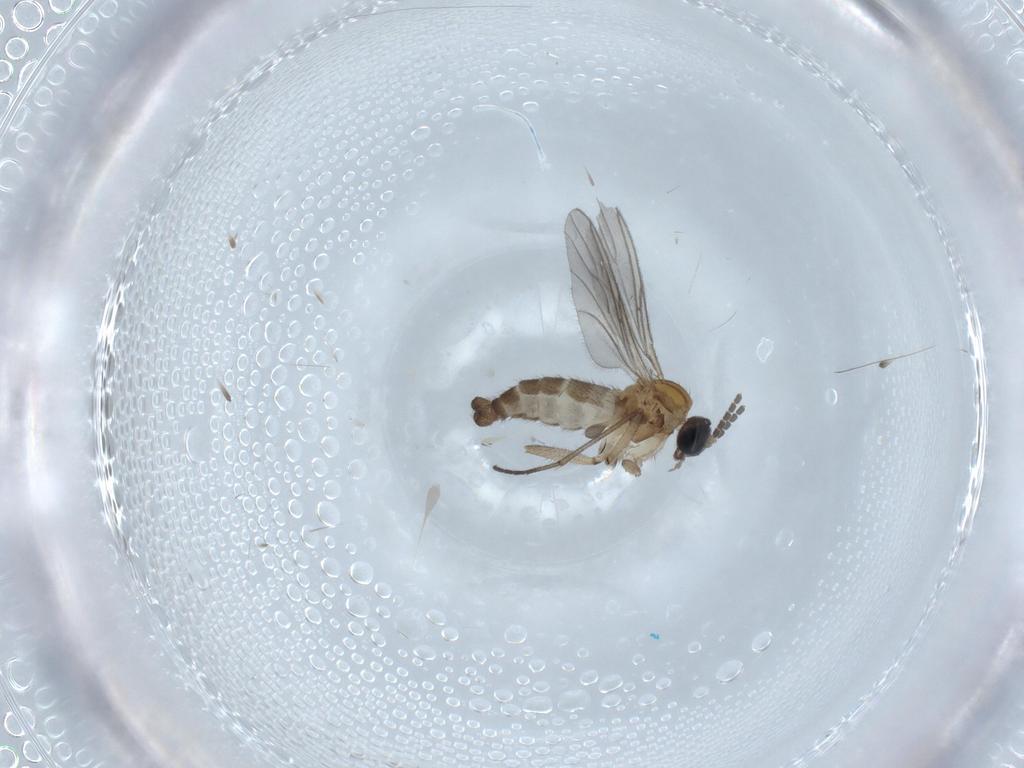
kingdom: Animalia
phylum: Arthropoda
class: Insecta
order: Diptera
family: Sciaridae
